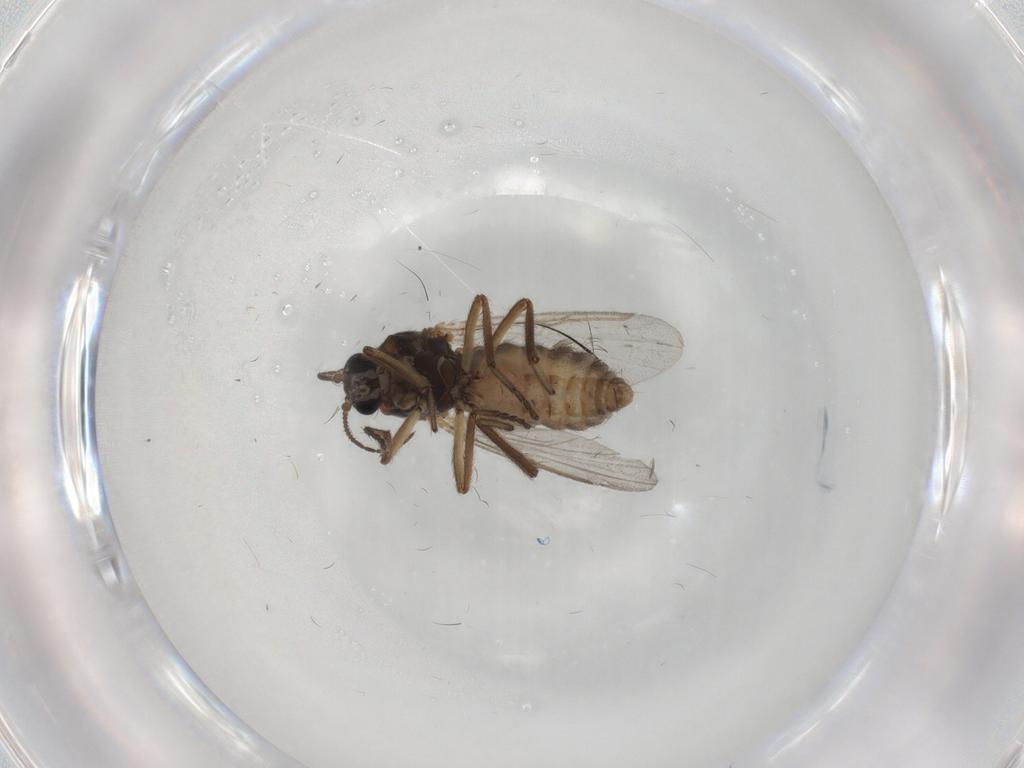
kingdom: Animalia
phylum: Arthropoda
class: Insecta
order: Diptera
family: Ceratopogonidae
